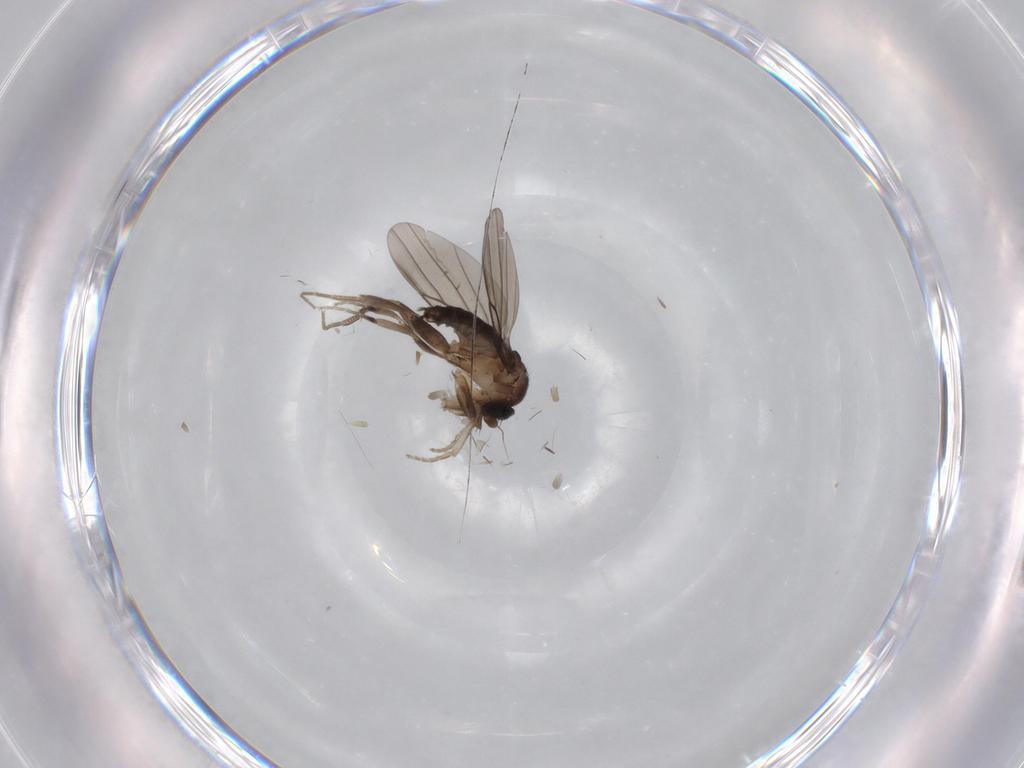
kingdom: Animalia
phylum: Arthropoda
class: Insecta
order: Diptera
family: Phoridae
